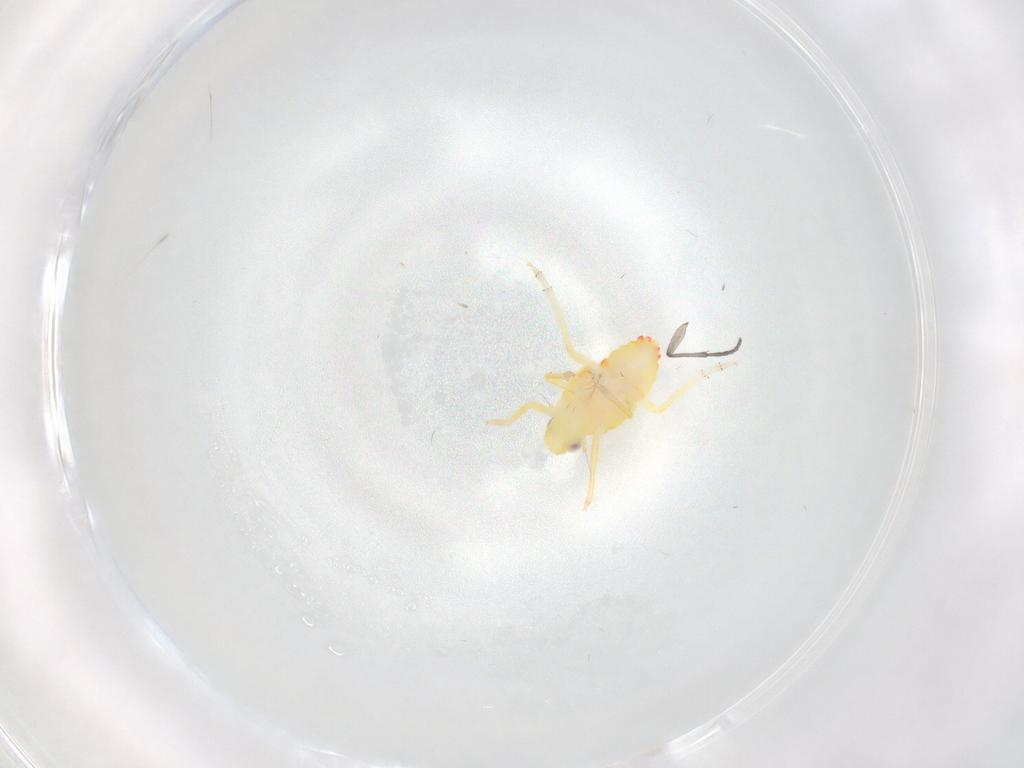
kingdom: Animalia
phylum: Arthropoda
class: Insecta
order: Hemiptera
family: Tropiduchidae
